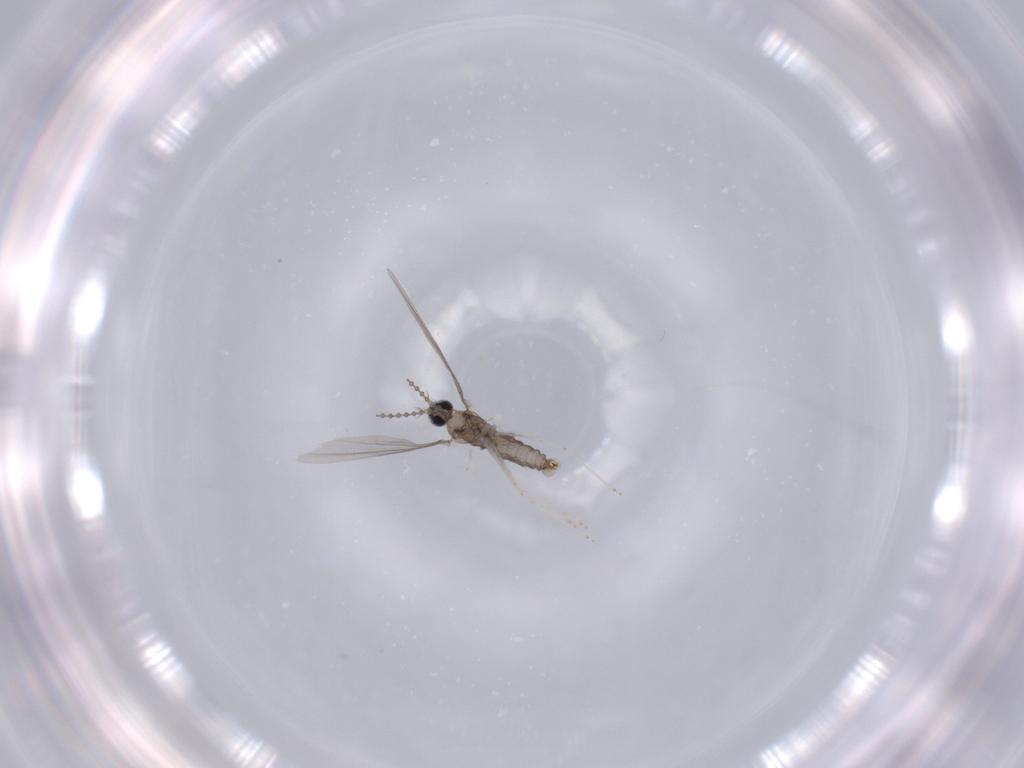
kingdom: Animalia
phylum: Arthropoda
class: Insecta
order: Diptera
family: Cecidomyiidae
